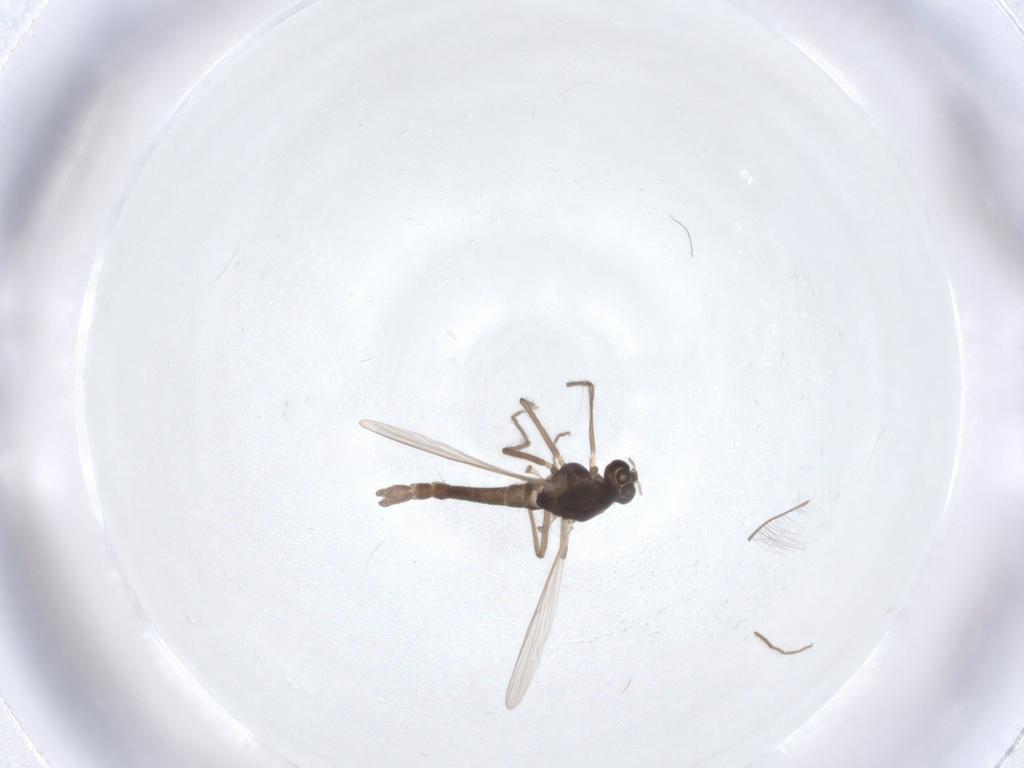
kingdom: Animalia
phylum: Arthropoda
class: Insecta
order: Diptera
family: Chironomidae
